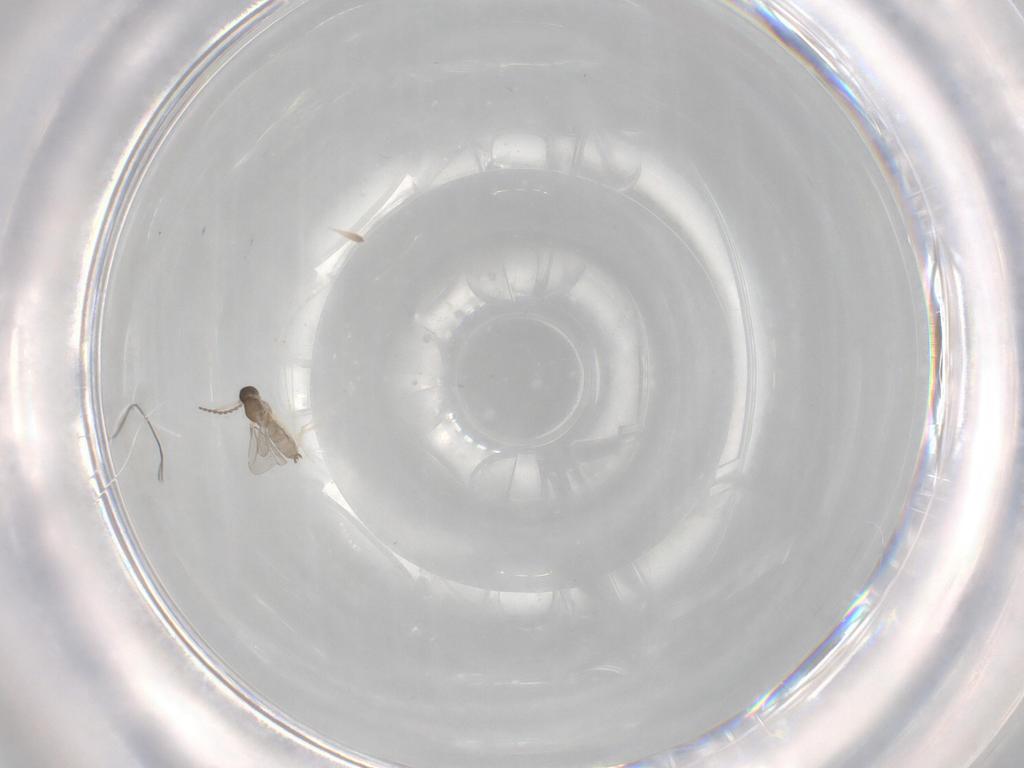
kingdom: Animalia
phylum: Arthropoda
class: Insecta
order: Diptera
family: Cecidomyiidae
